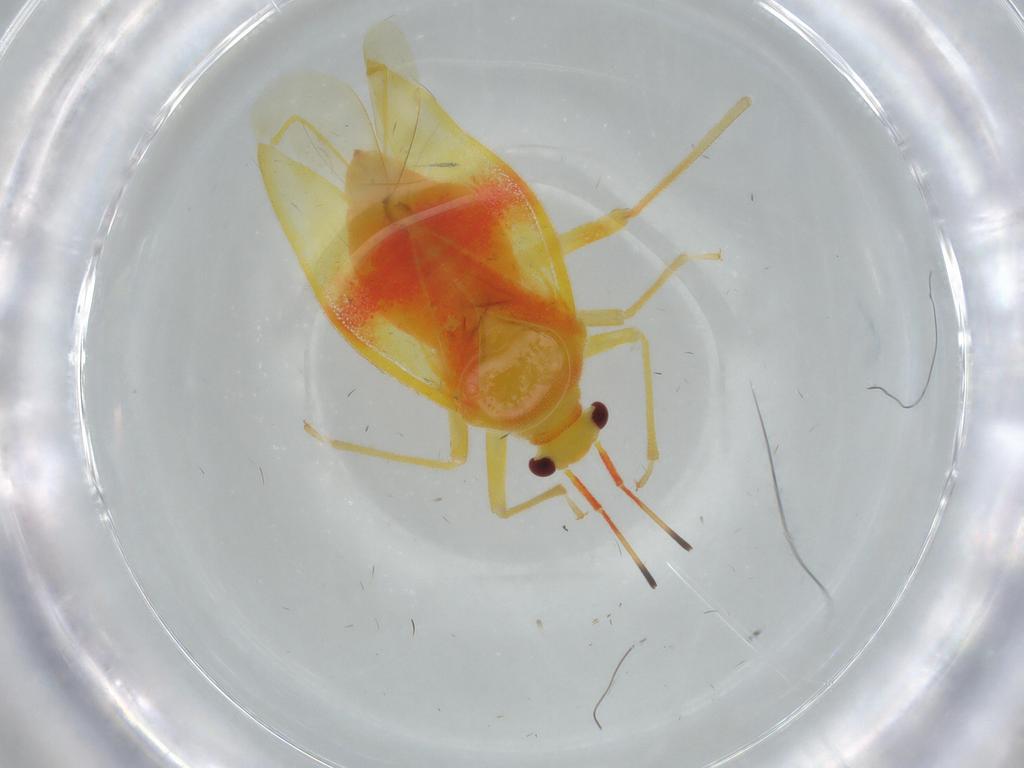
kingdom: Animalia
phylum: Arthropoda
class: Insecta
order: Hemiptera
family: Miridae
